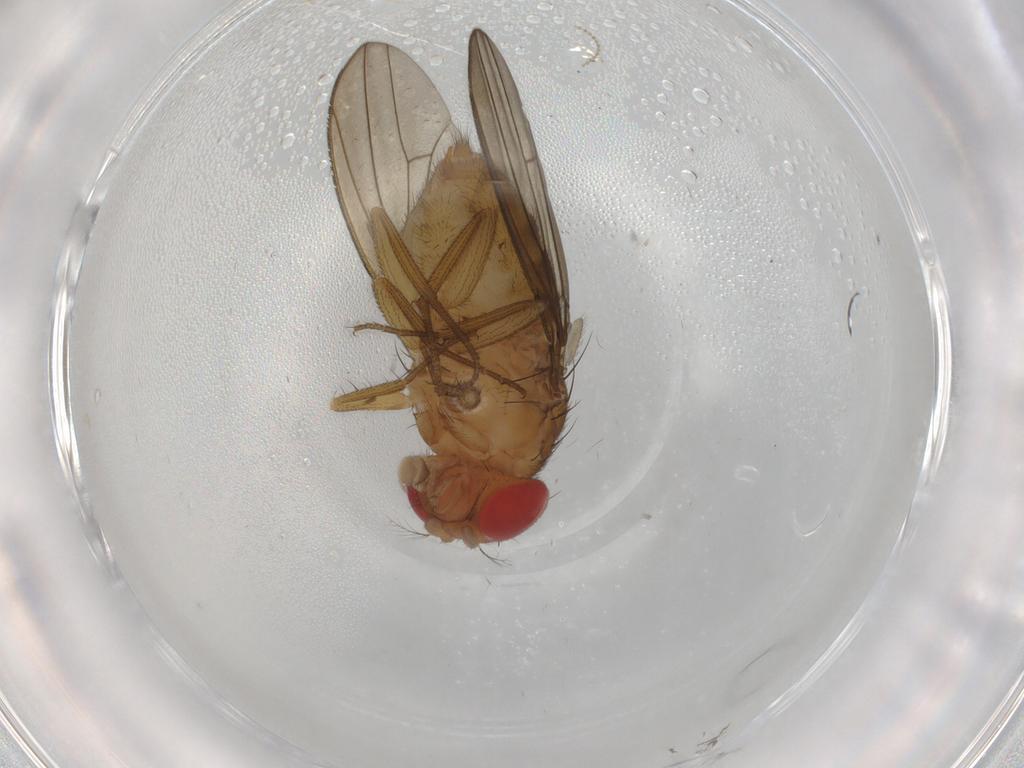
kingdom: Animalia
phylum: Arthropoda
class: Insecta
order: Diptera
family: Drosophilidae
